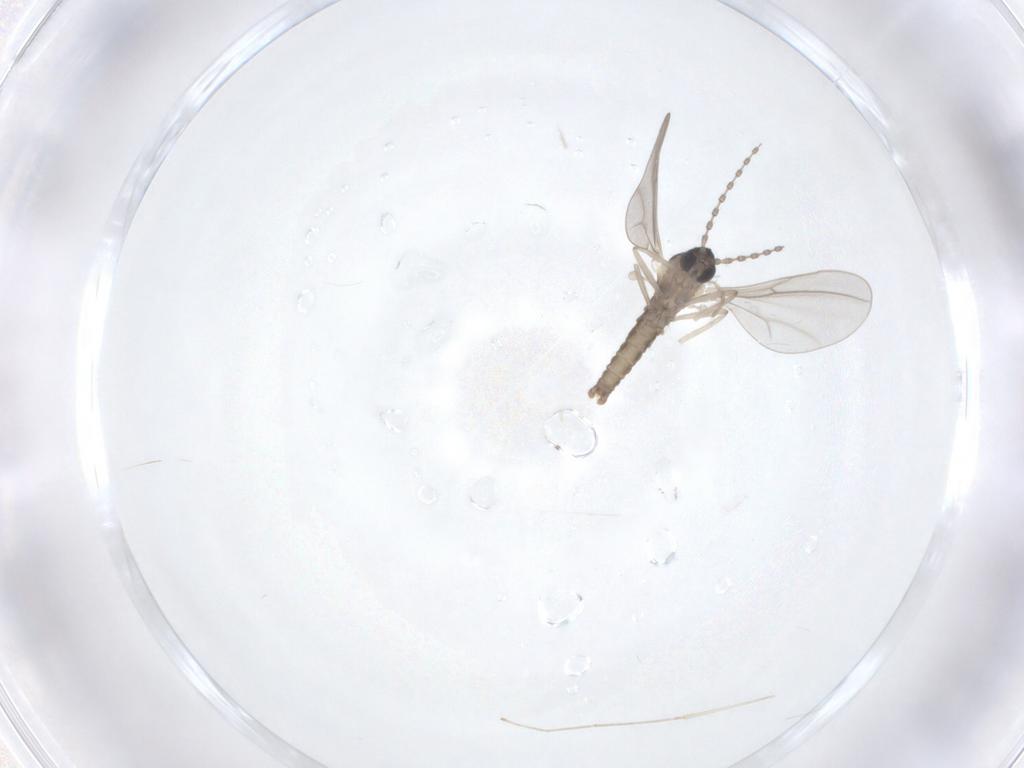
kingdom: Animalia
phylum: Arthropoda
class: Insecta
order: Diptera
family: Cecidomyiidae
